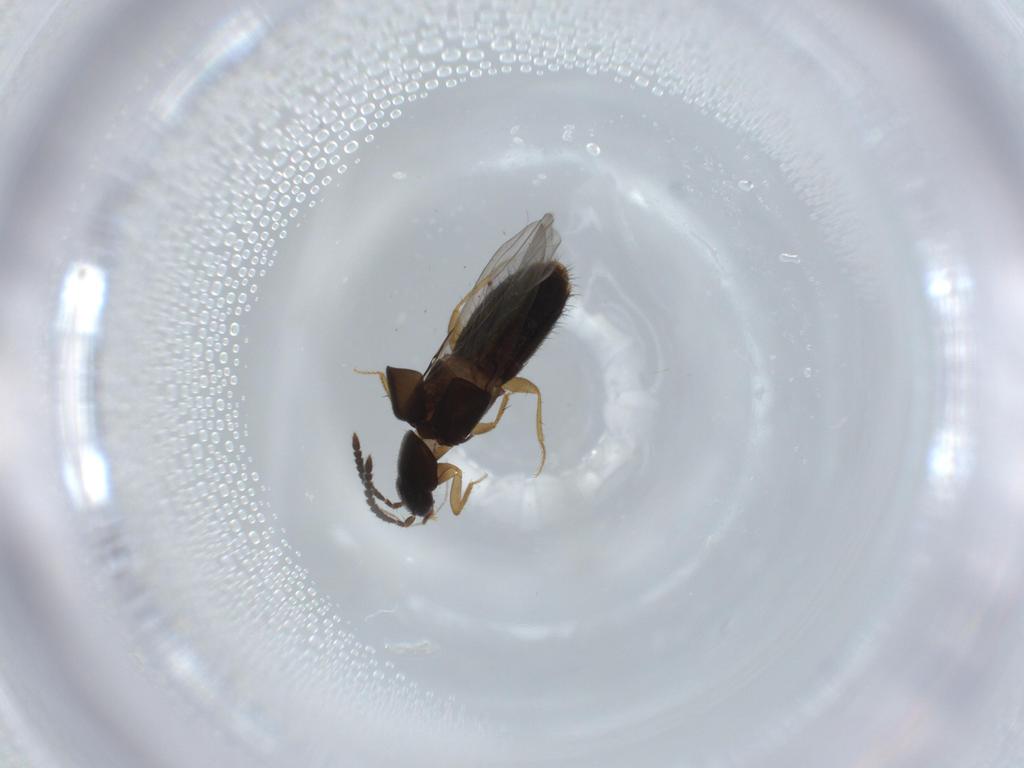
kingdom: Animalia
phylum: Arthropoda
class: Insecta
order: Coleoptera
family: Staphylinidae
